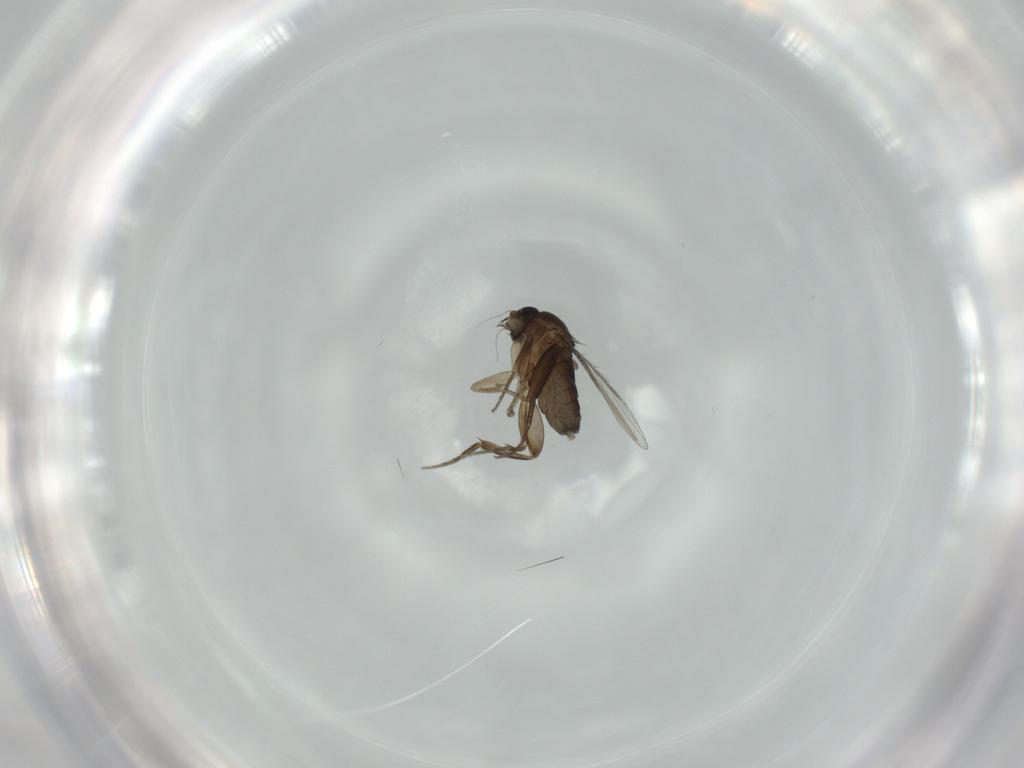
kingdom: Animalia
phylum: Arthropoda
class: Insecta
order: Diptera
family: Phoridae
